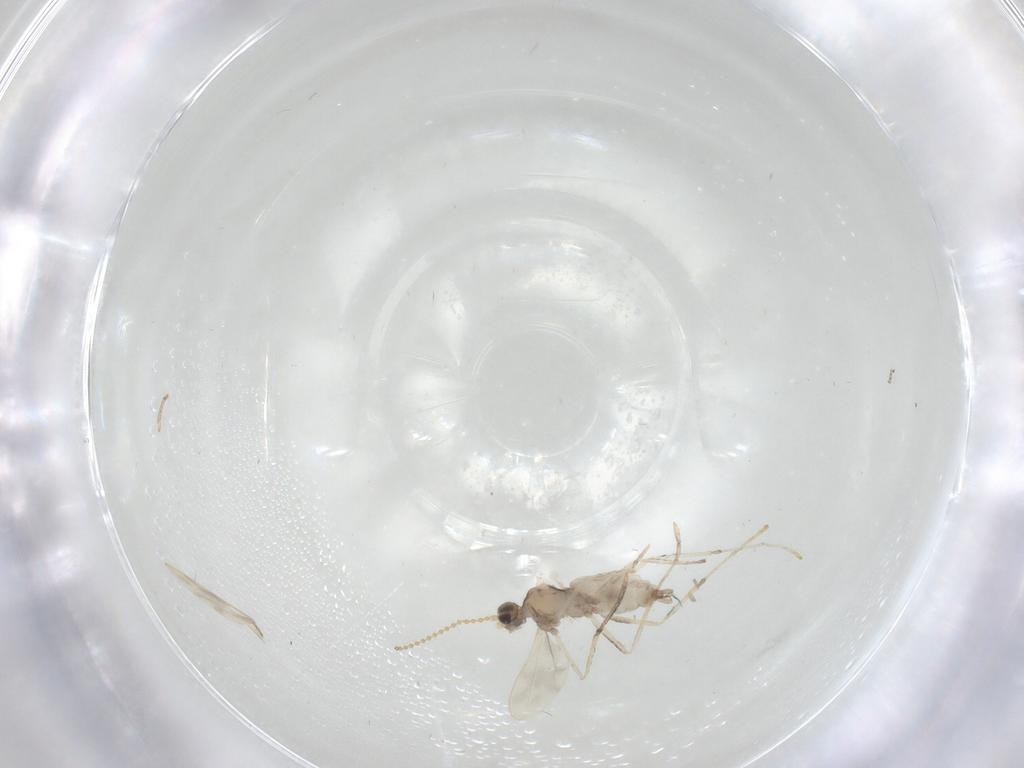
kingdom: Animalia
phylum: Arthropoda
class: Insecta
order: Diptera
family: Cecidomyiidae
